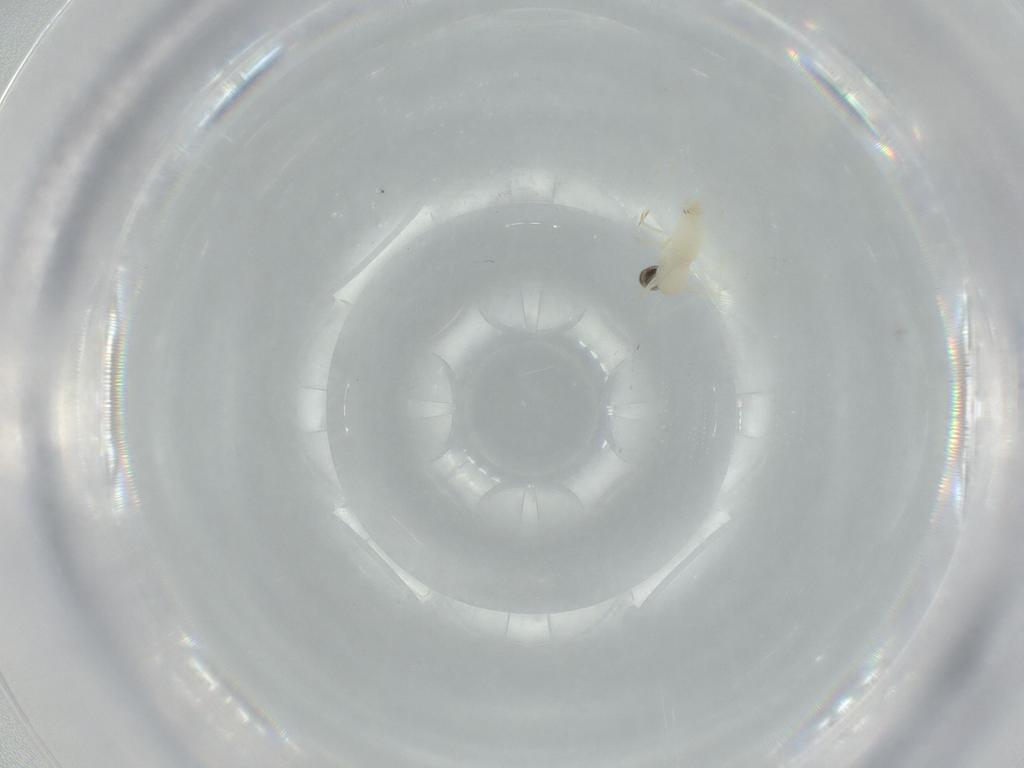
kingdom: Animalia
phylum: Arthropoda
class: Insecta
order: Diptera
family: Cecidomyiidae
